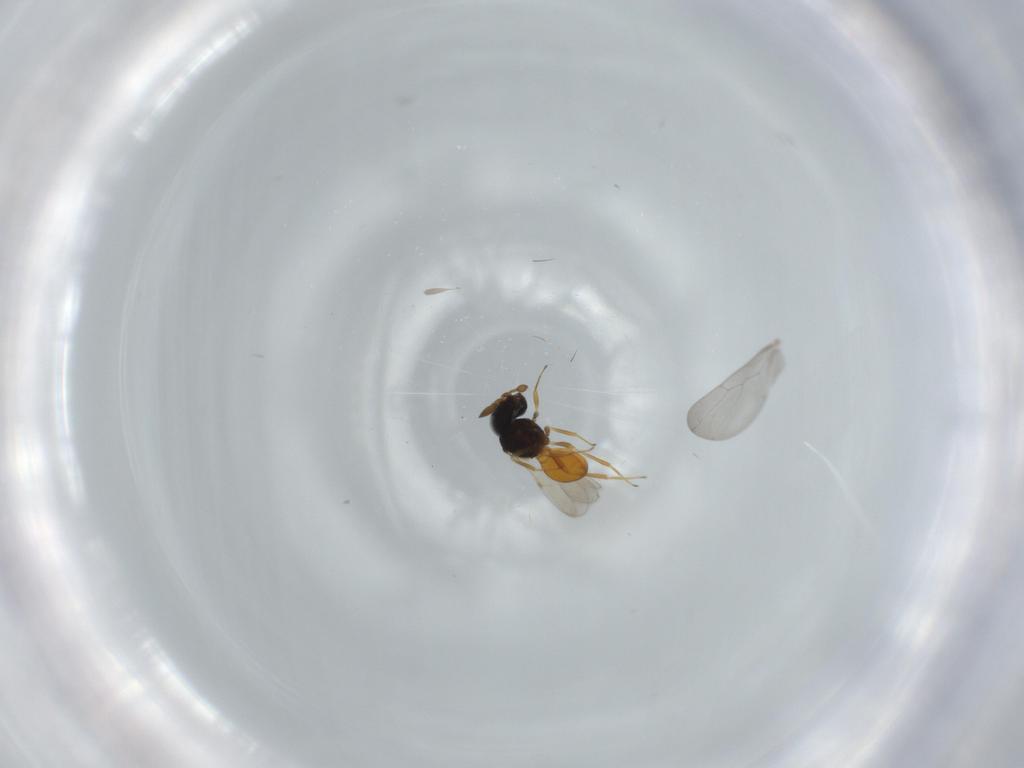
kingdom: Animalia
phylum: Arthropoda
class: Insecta
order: Hymenoptera
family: Scelionidae
